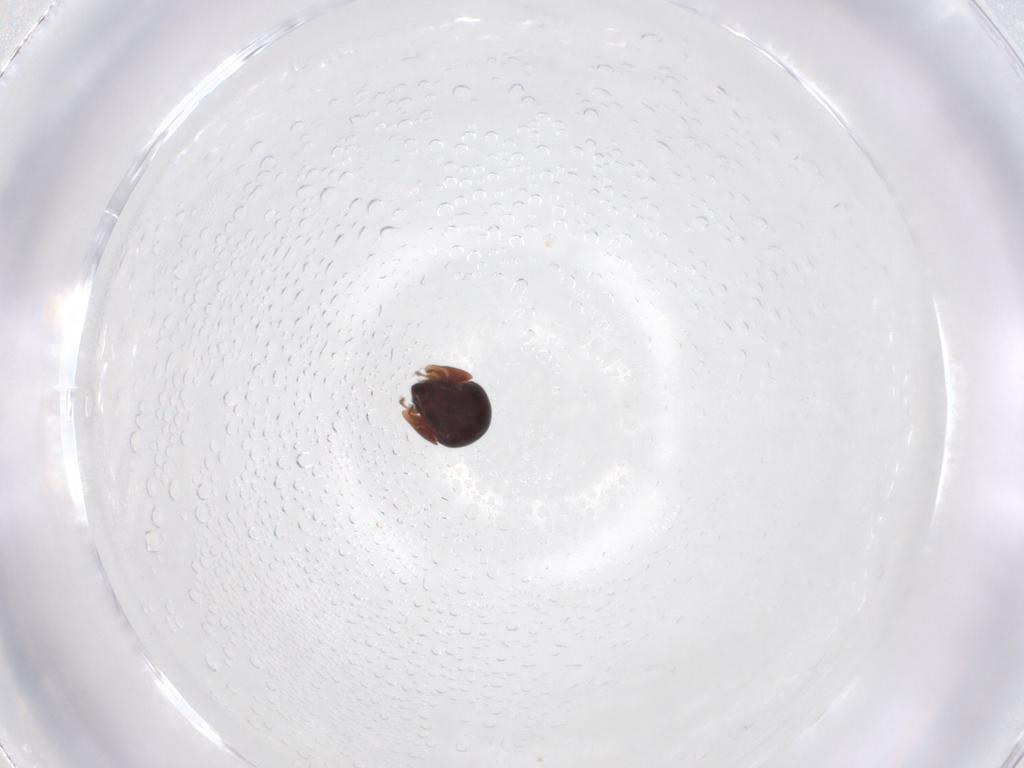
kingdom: Animalia
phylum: Arthropoda
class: Arachnida
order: Sarcoptiformes
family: Galumnidae
